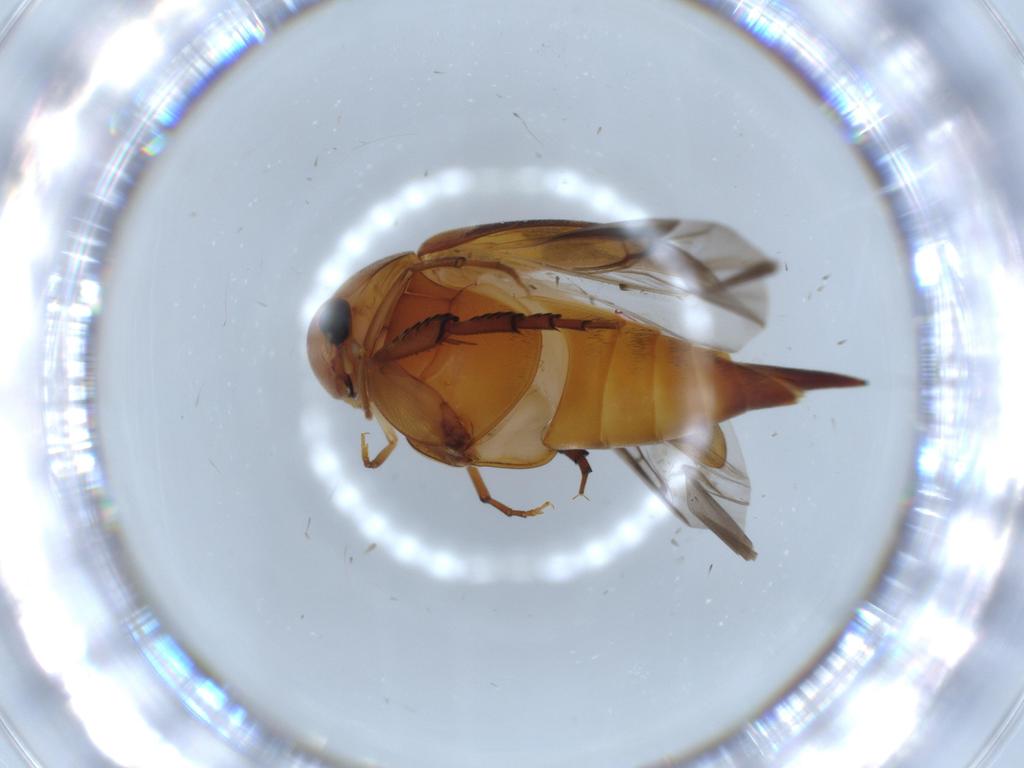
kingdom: Animalia
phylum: Arthropoda
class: Insecta
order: Coleoptera
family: Mordellidae
